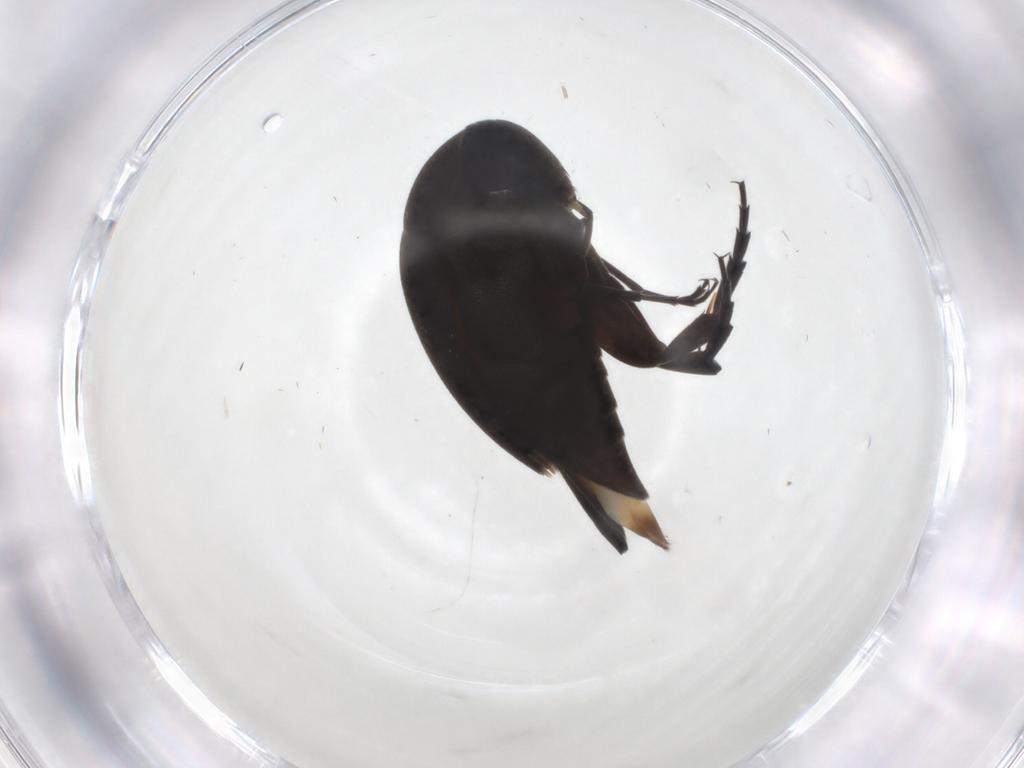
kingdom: Animalia
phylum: Arthropoda
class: Insecta
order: Coleoptera
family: Mordellidae
